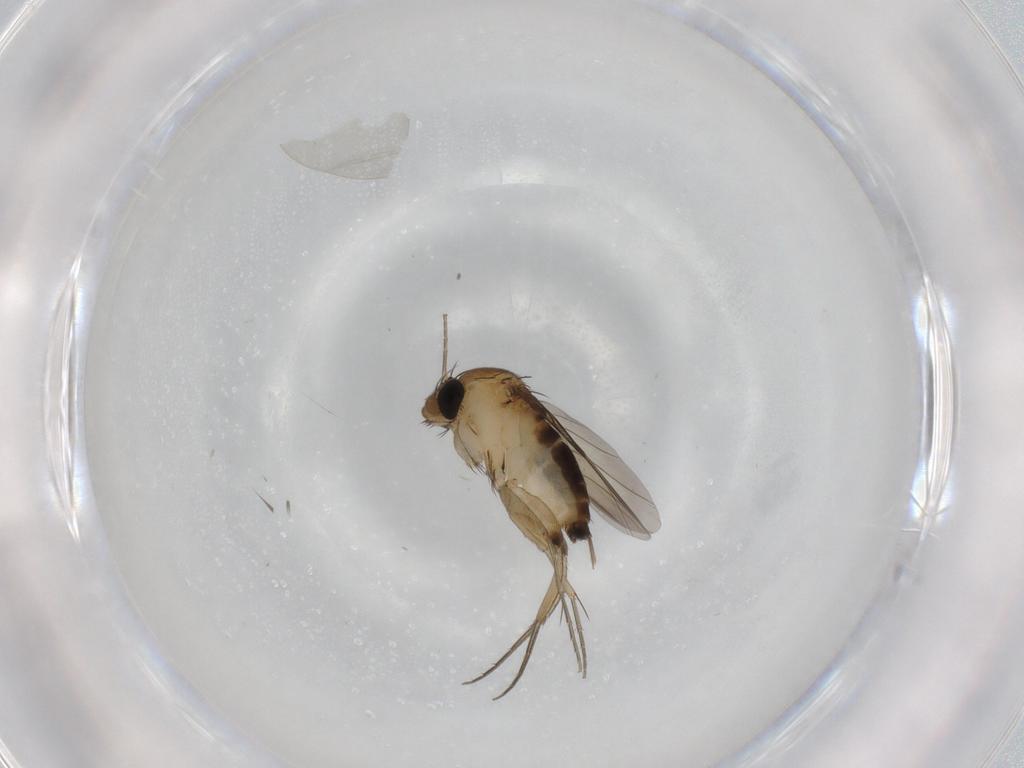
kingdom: Animalia
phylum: Arthropoda
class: Insecta
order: Diptera
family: Phoridae
